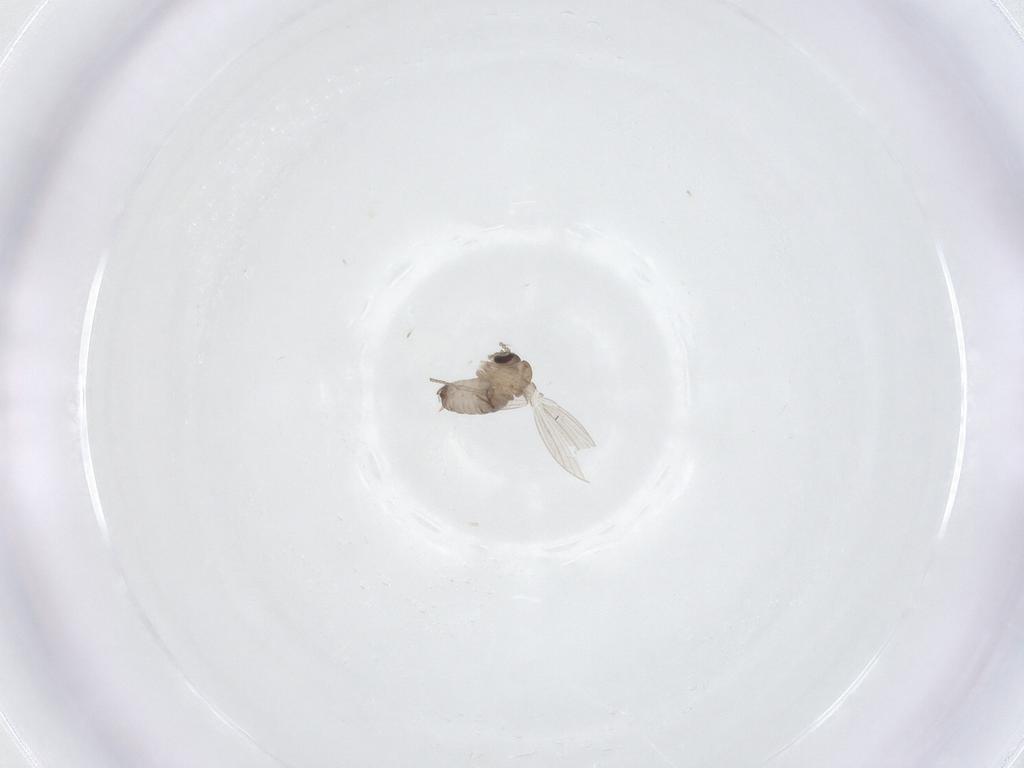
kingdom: Animalia
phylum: Arthropoda
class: Insecta
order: Diptera
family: Psychodidae
